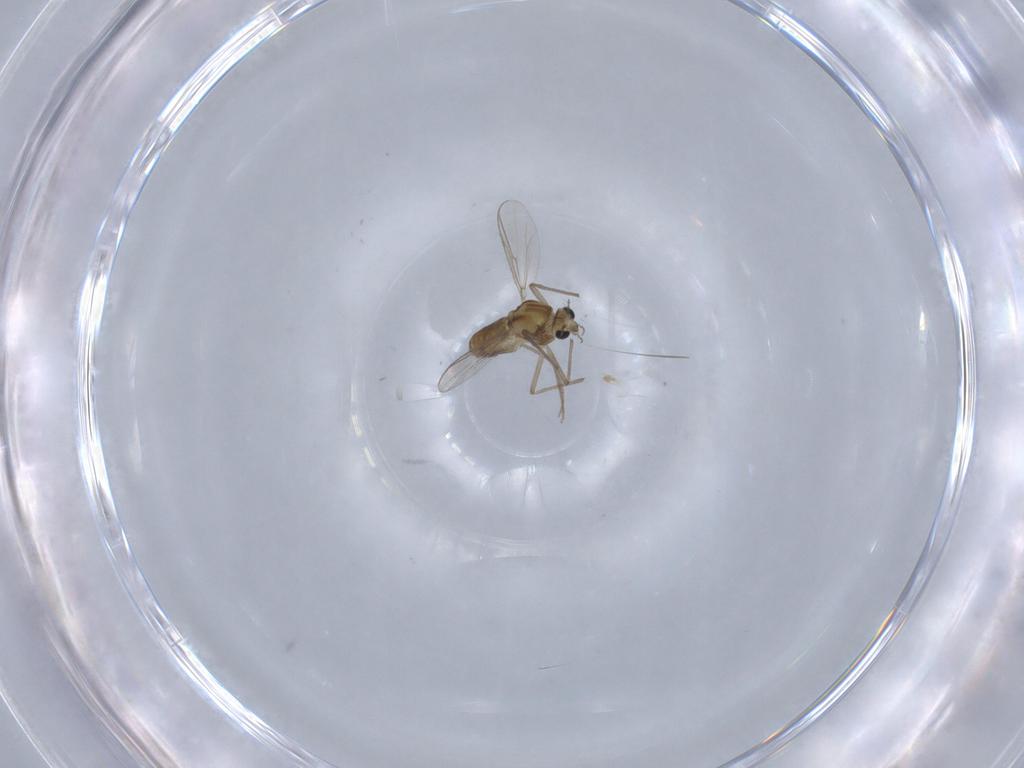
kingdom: Animalia
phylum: Arthropoda
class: Insecta
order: Diptera
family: Chironomidae
